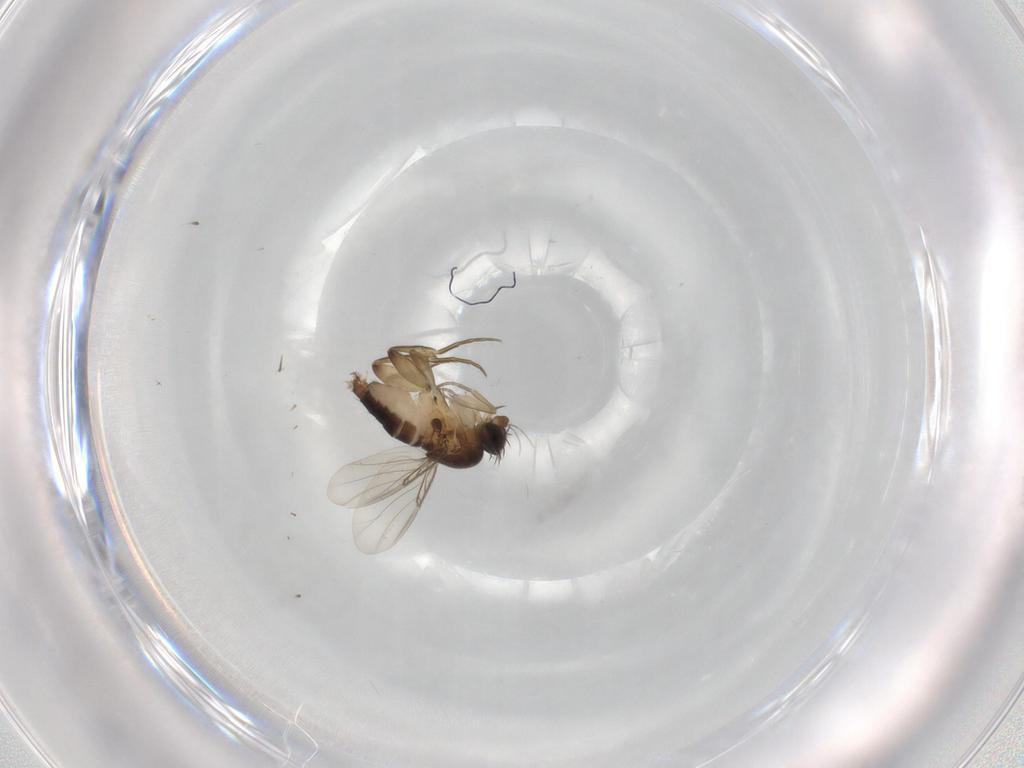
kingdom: Animalia
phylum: Arthropoda
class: Insecta
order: Diptera
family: Phoridae
